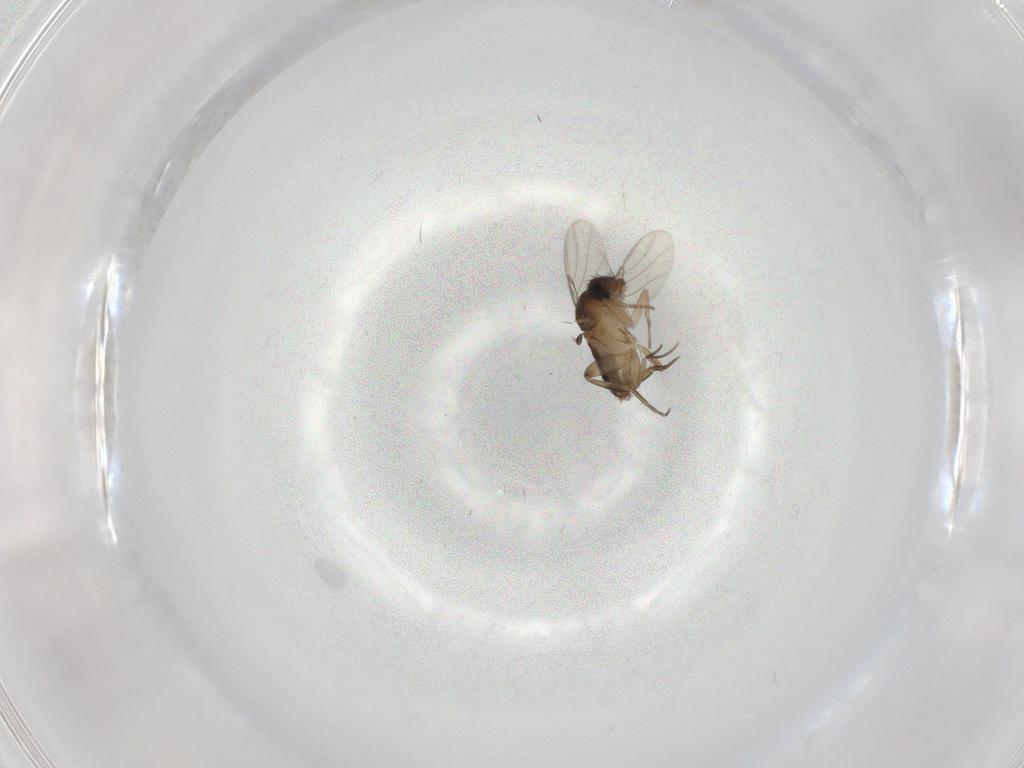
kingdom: Animalia
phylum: Arthropoda
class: Insecta
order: Diptera
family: Phoridae
